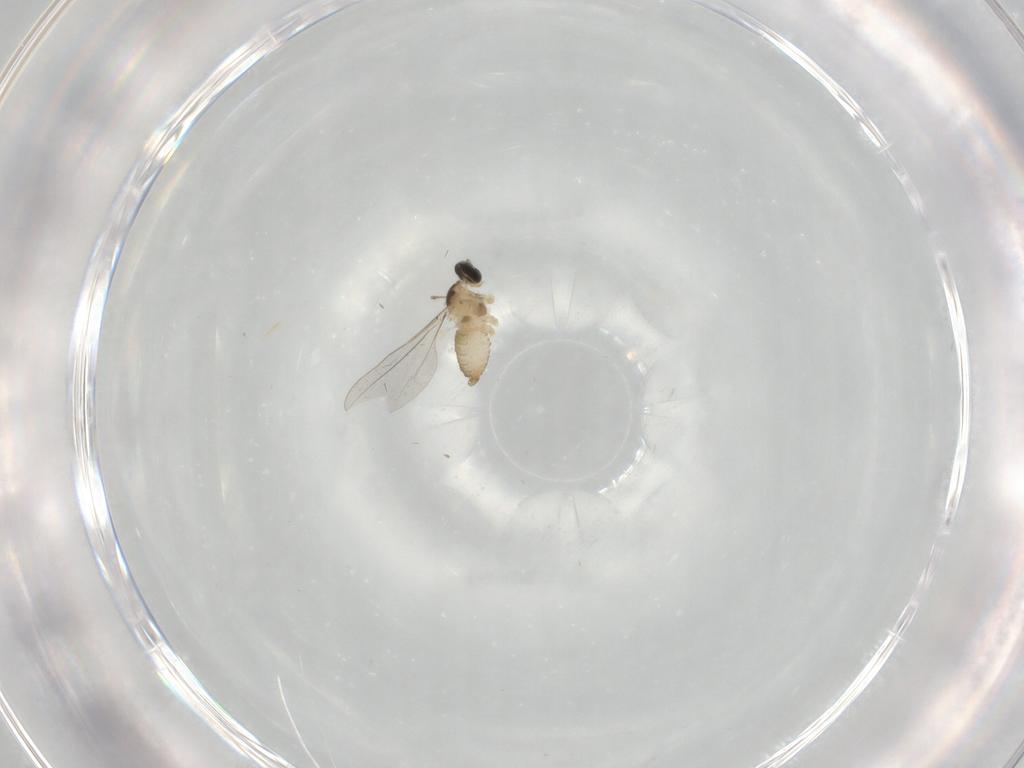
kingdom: Animalia
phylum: Arthropoda
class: Insecta
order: Diptera
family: Cecidomyiidae
